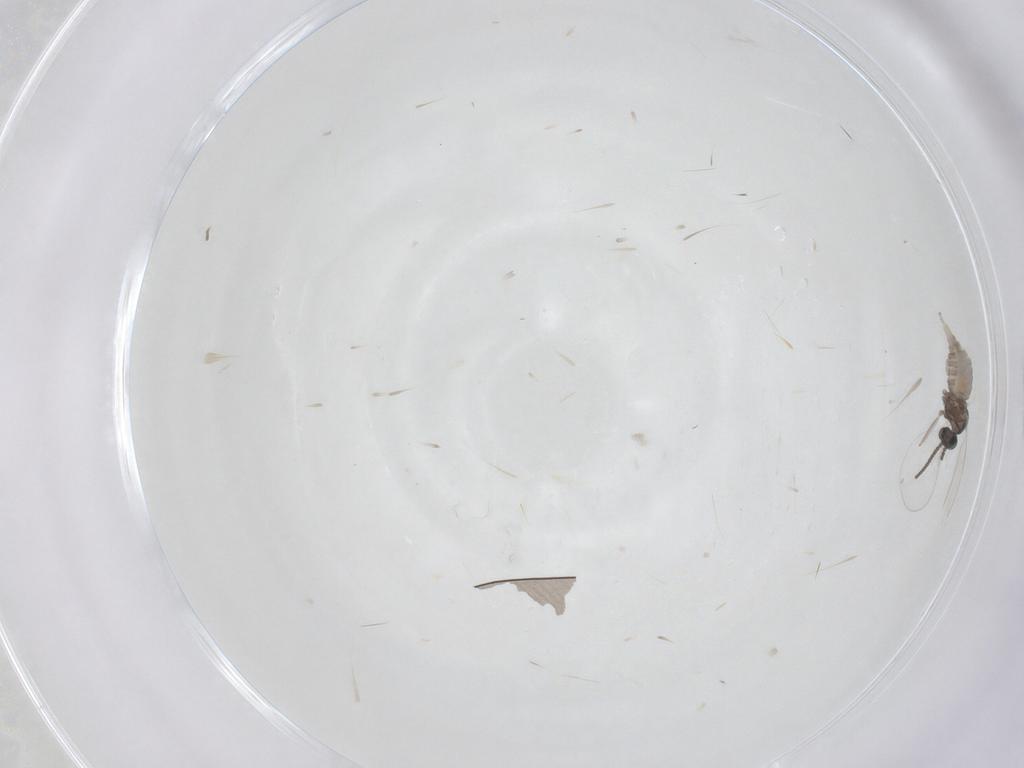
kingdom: Animalia
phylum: Arthropoda
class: Insecta
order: Diptera
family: Cecidomyiidae
